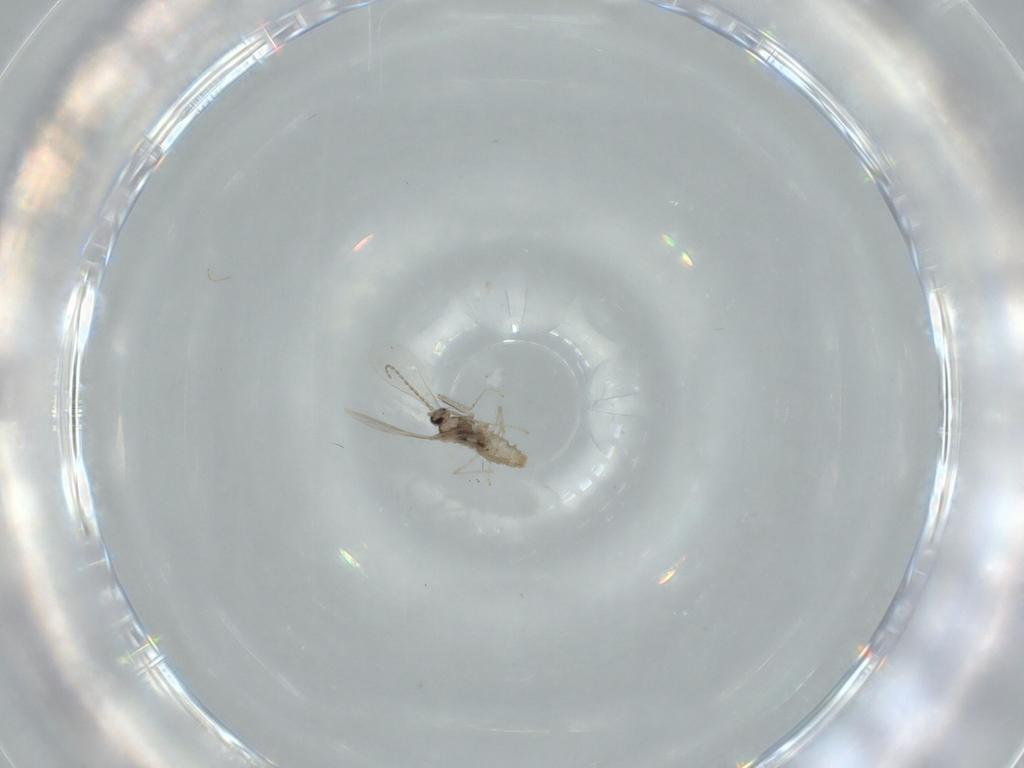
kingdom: Animalia
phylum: Arthropoda
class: Insecta
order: Diptera
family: Cecidomyiidae
